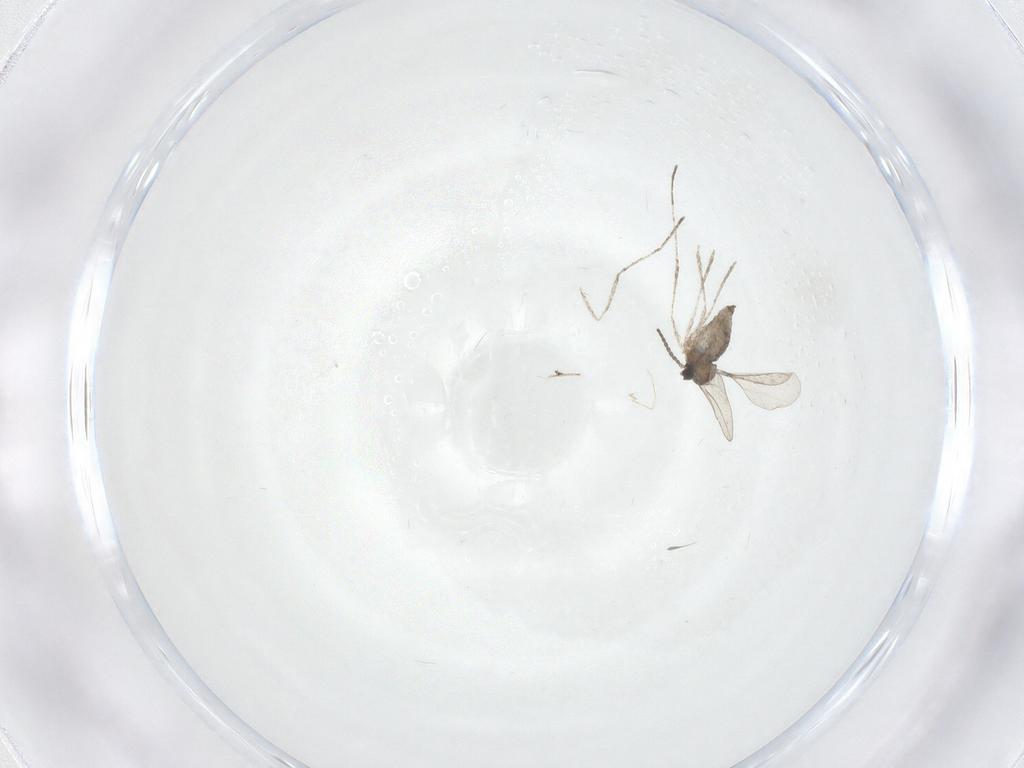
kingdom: Animalia
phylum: Arthropoda
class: Insecta
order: Diptera
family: Cecidomyiidae
